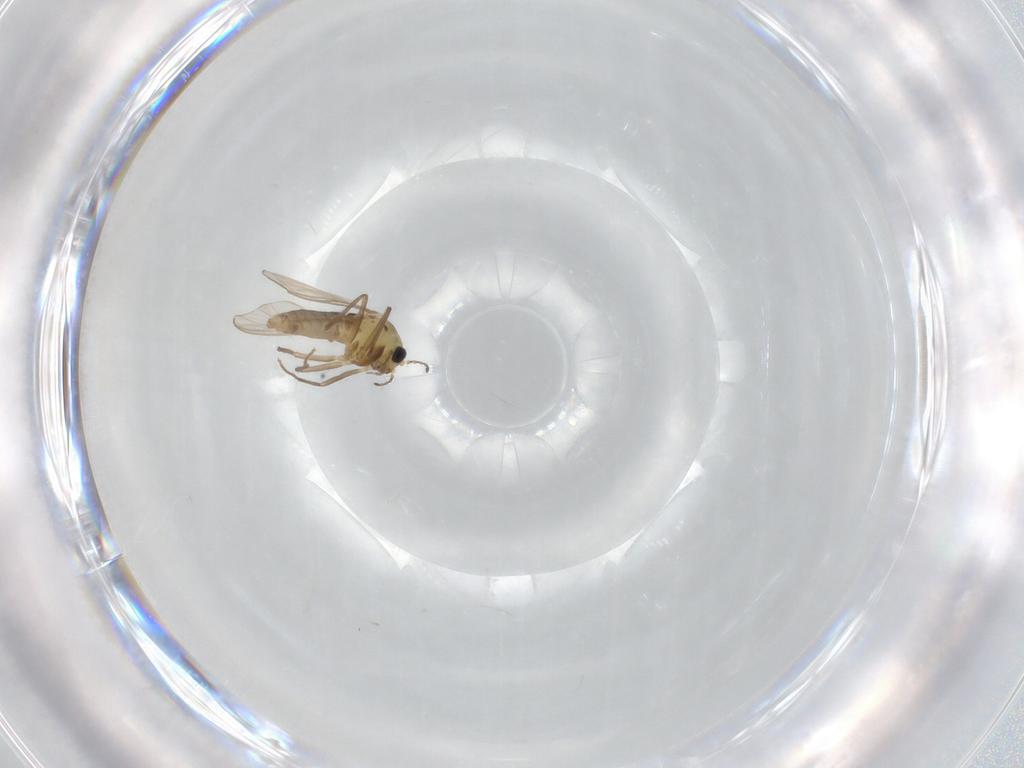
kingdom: Animalia
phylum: Arthropoda
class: Insecta
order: Diptera
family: Chironomidae
